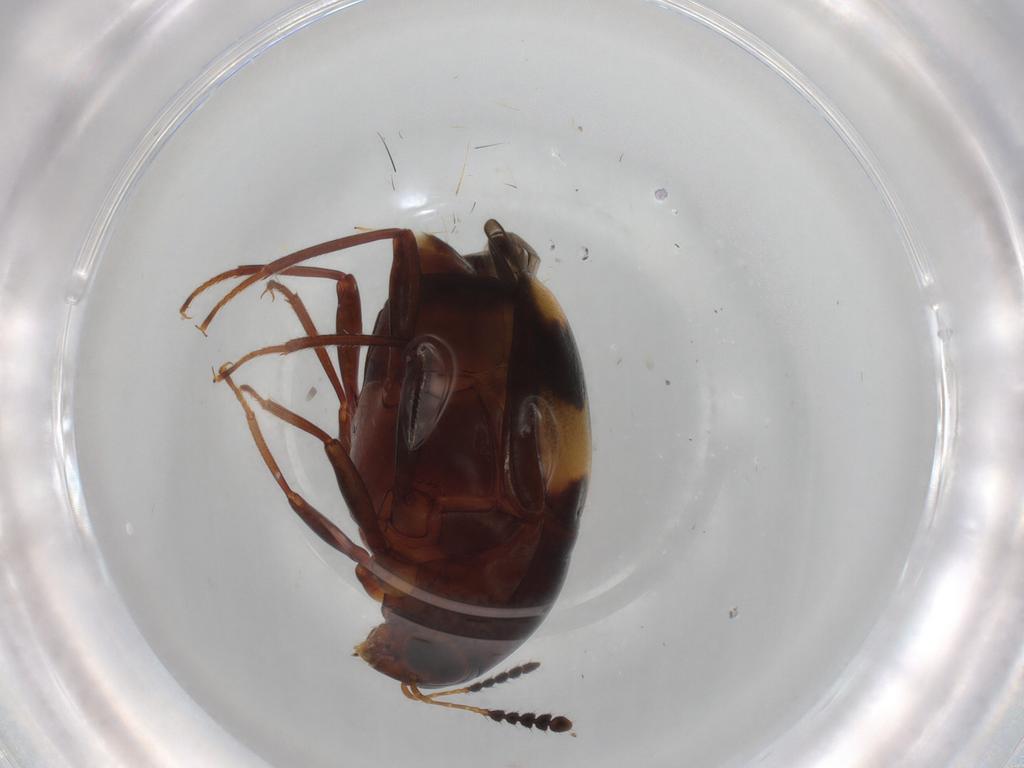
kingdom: Animalia
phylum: Arthropoda
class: Insecta
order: Coleoptera
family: Staphylinidae
